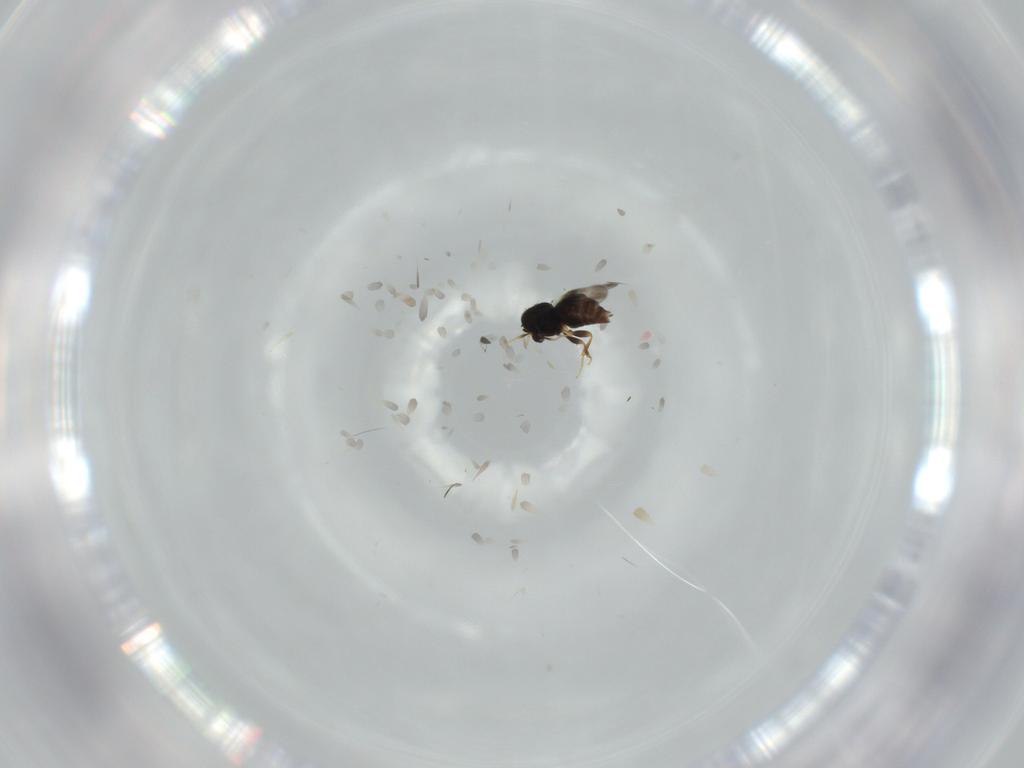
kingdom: Animalia
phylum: Arthropoda
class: Insecta
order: Hymenoptera
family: Ceraphronidae
